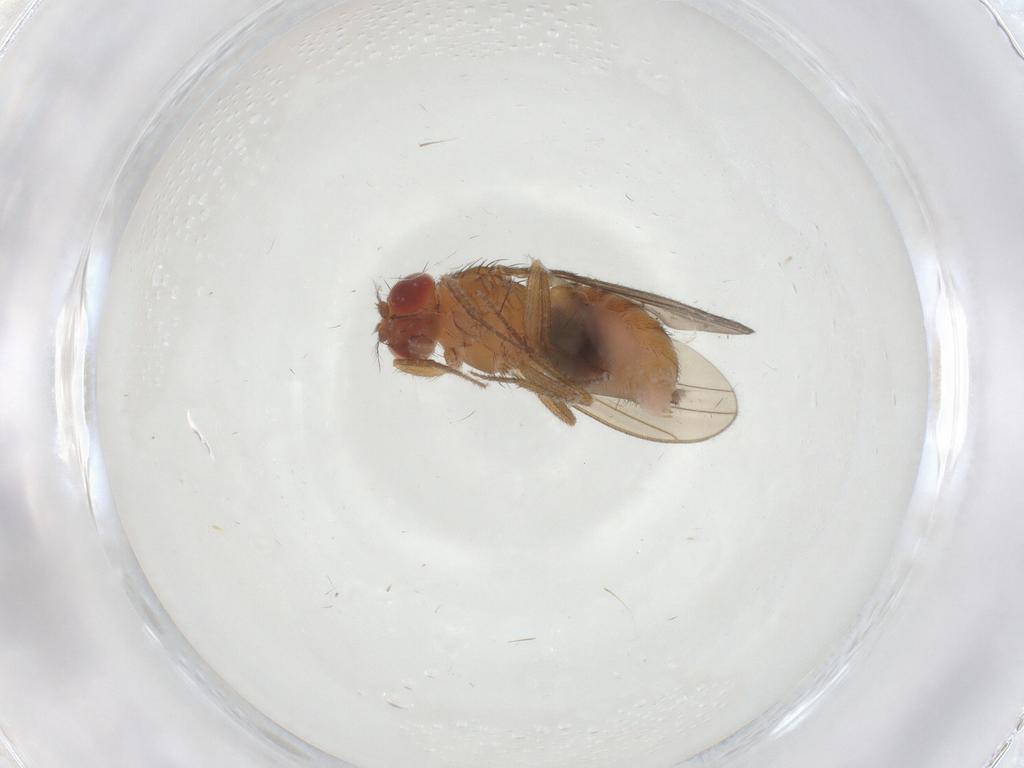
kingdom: Animalia
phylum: Arthropoda
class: Insecta
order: Diptera
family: Drosophilidae
